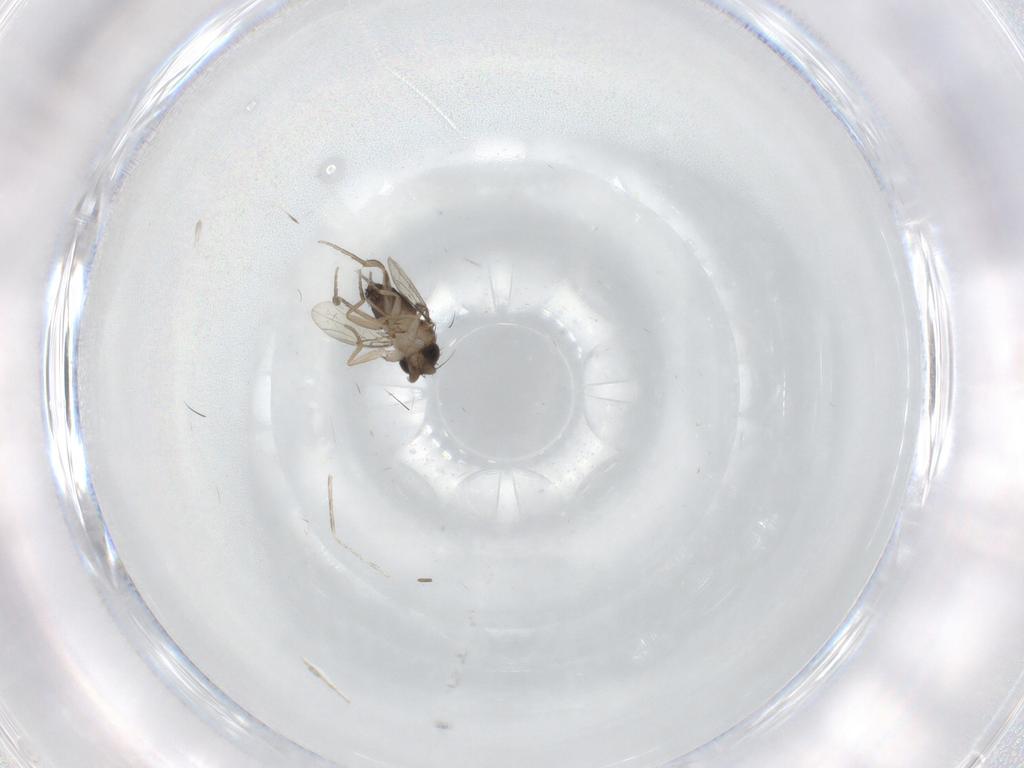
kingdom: Animalia
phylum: Arthropoda
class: Insecta
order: Diptera
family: Phoridae
